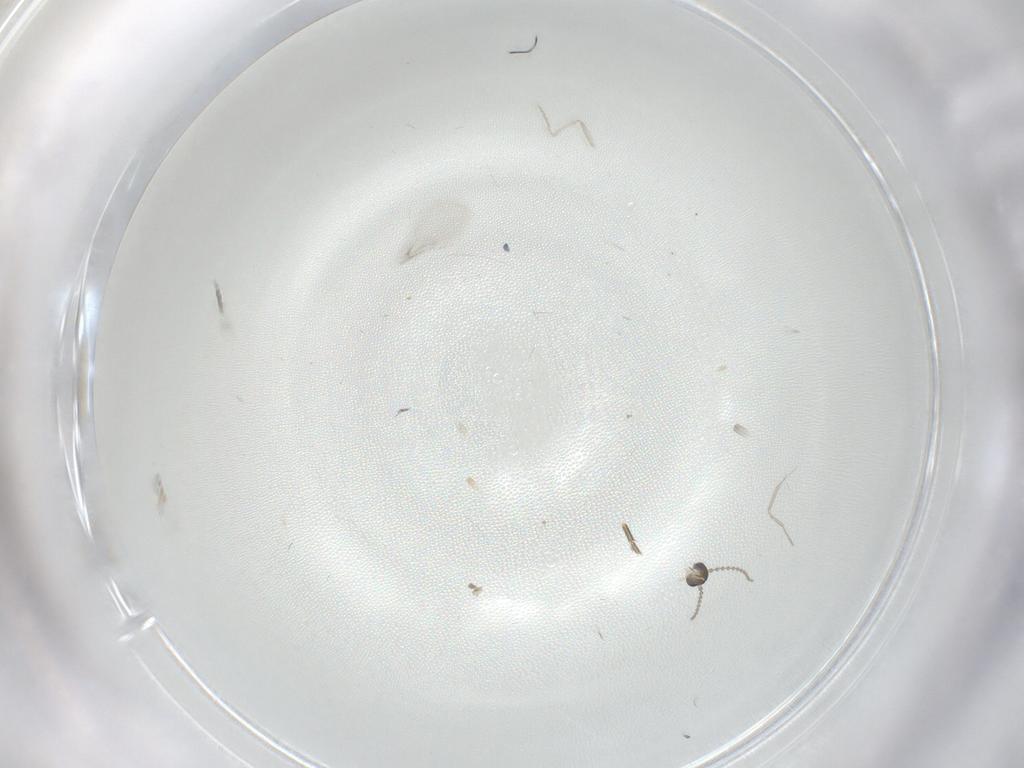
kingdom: Animalia
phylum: Arthropoda
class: Insecta
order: Diptera
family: Cecidomyiidae
